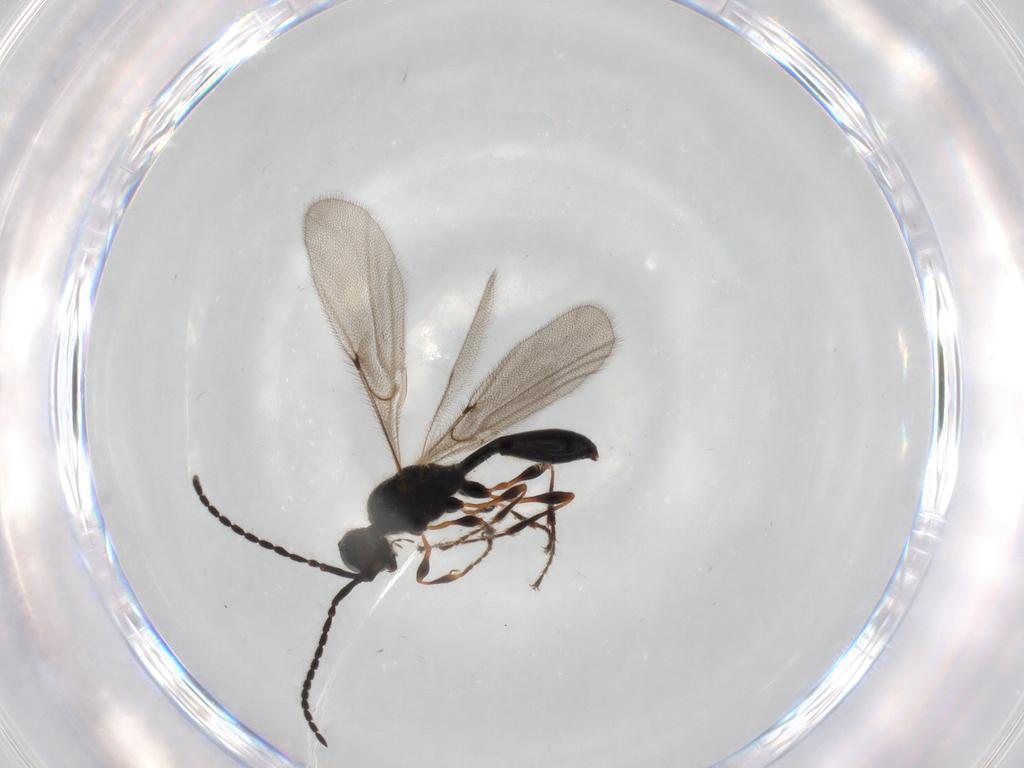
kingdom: Animalia
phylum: Arthropoda
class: Insecta
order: Hymenoptera
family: Diapriidae
